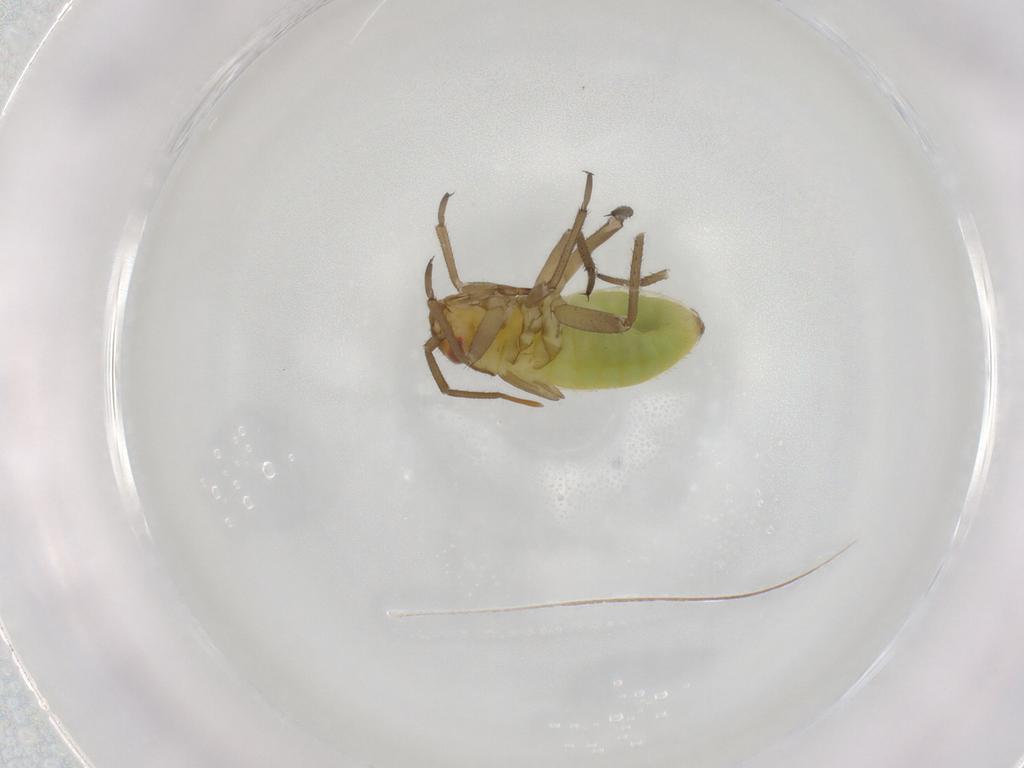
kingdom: Animalia
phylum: Arthropoda
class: Insecta
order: Hemiptera
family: Miridae
